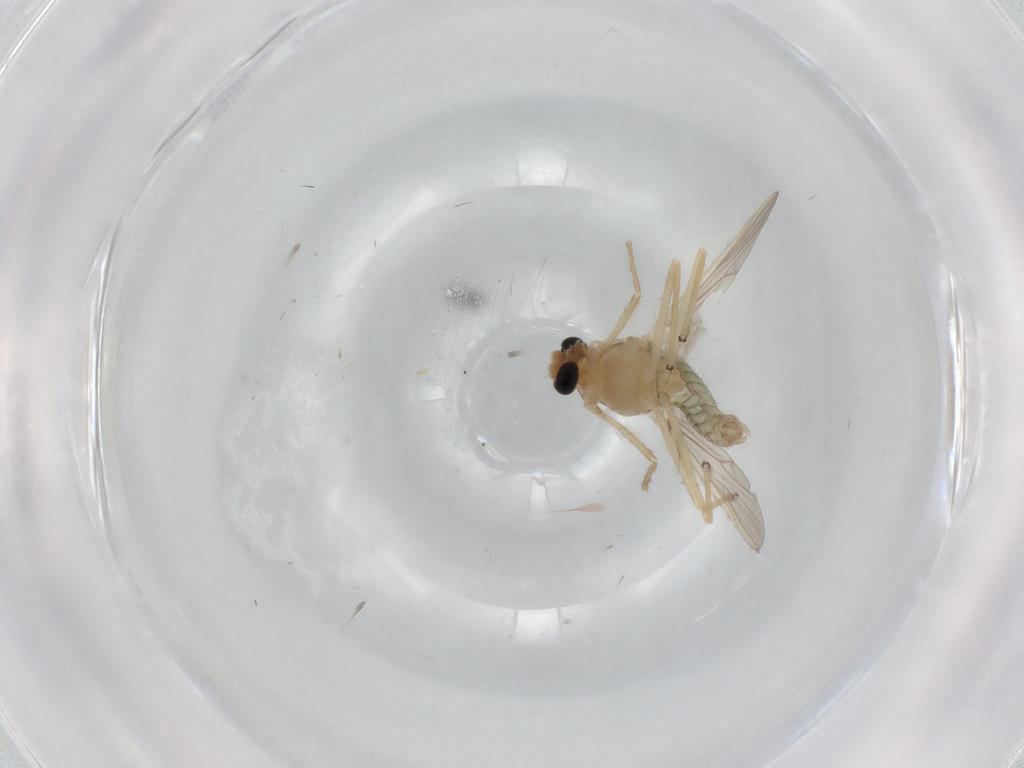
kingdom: Animalia
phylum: Arthropoda
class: Insecta
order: Diptera
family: Chironomidae
